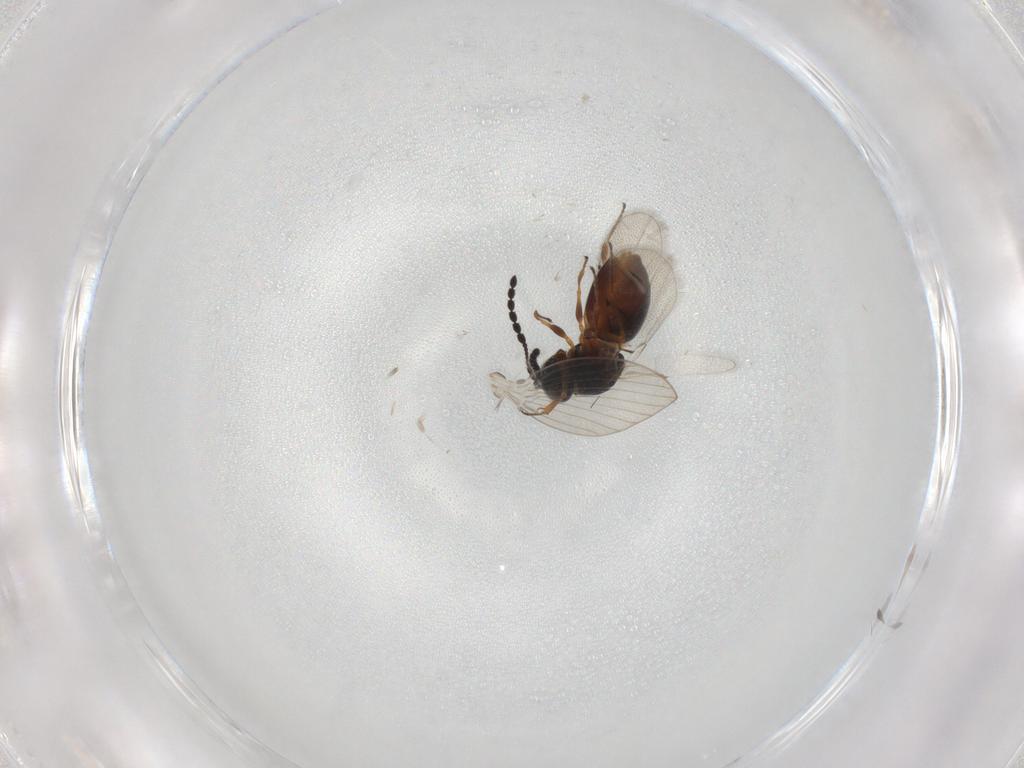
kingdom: Animalia
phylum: Arthropoda
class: Insecta
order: Hymenoptera
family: Figitidae
